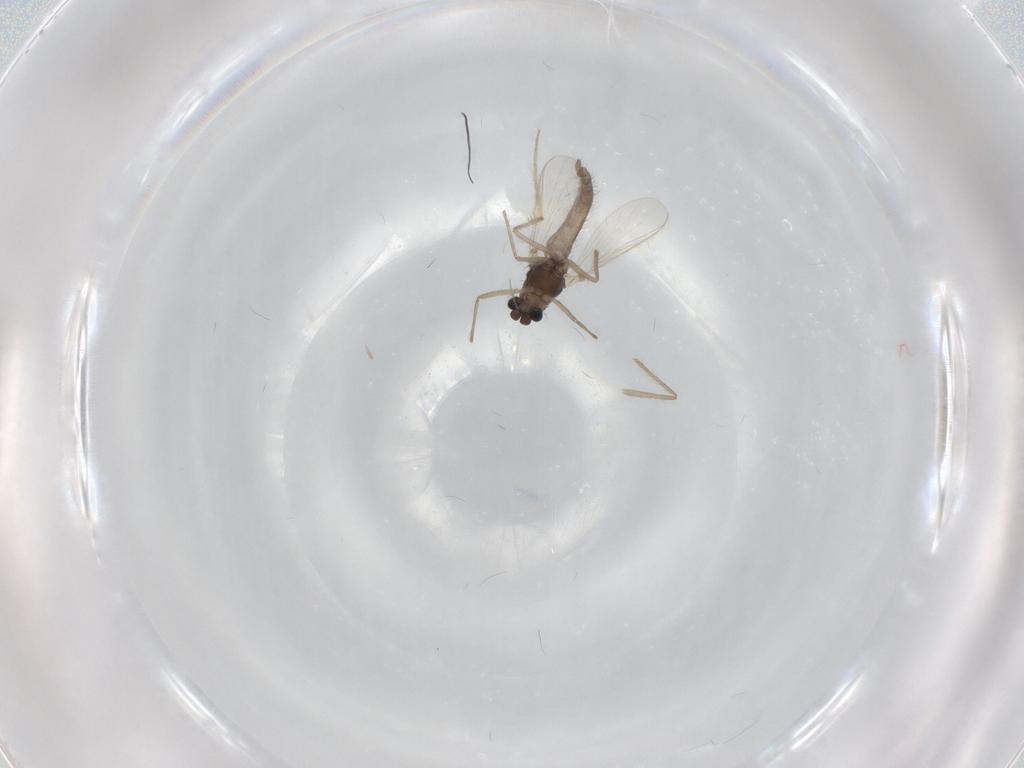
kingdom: Animalia
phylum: Arthropoda
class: Insecta
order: Diptera
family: Chironomidae
